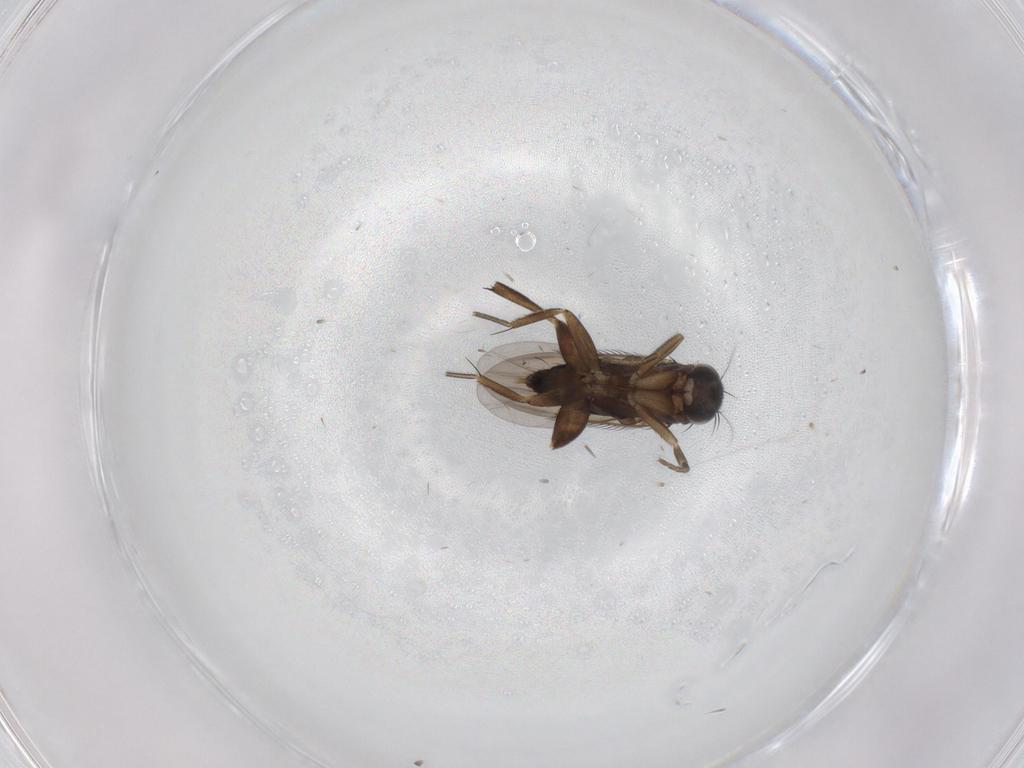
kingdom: Animalia
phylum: Arthropoda
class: Insecta
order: Diptera
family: Phoridae
